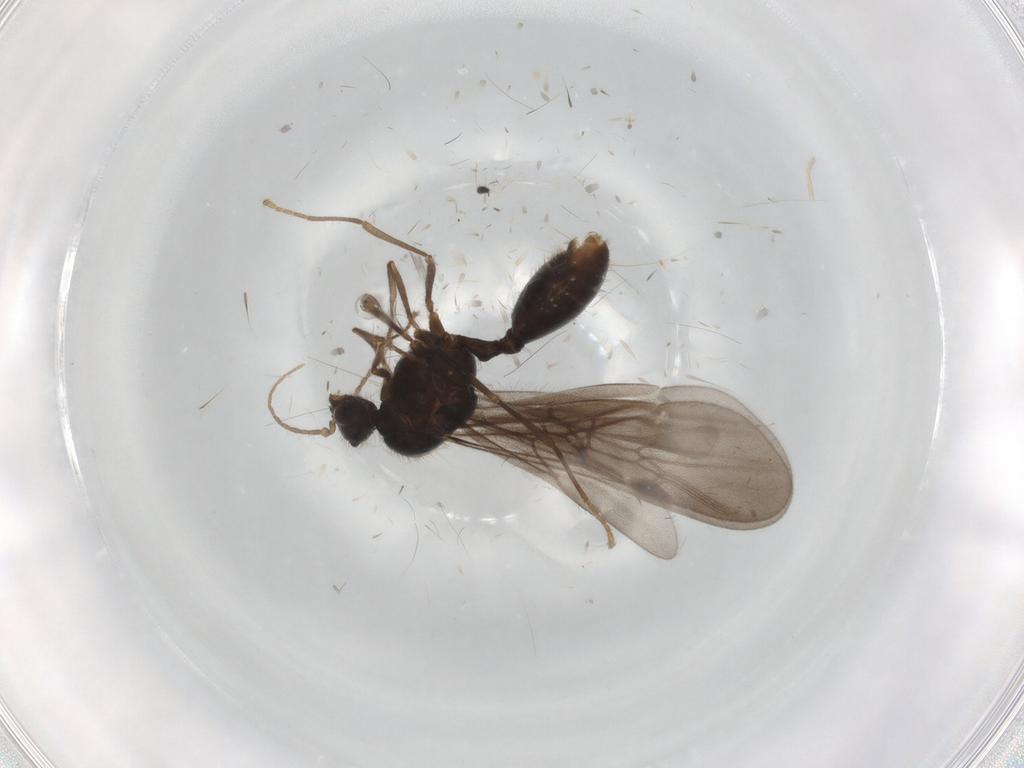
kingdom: Animalia
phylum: Arthropoda
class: Insecta
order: Hymenoptera
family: Formicidae
